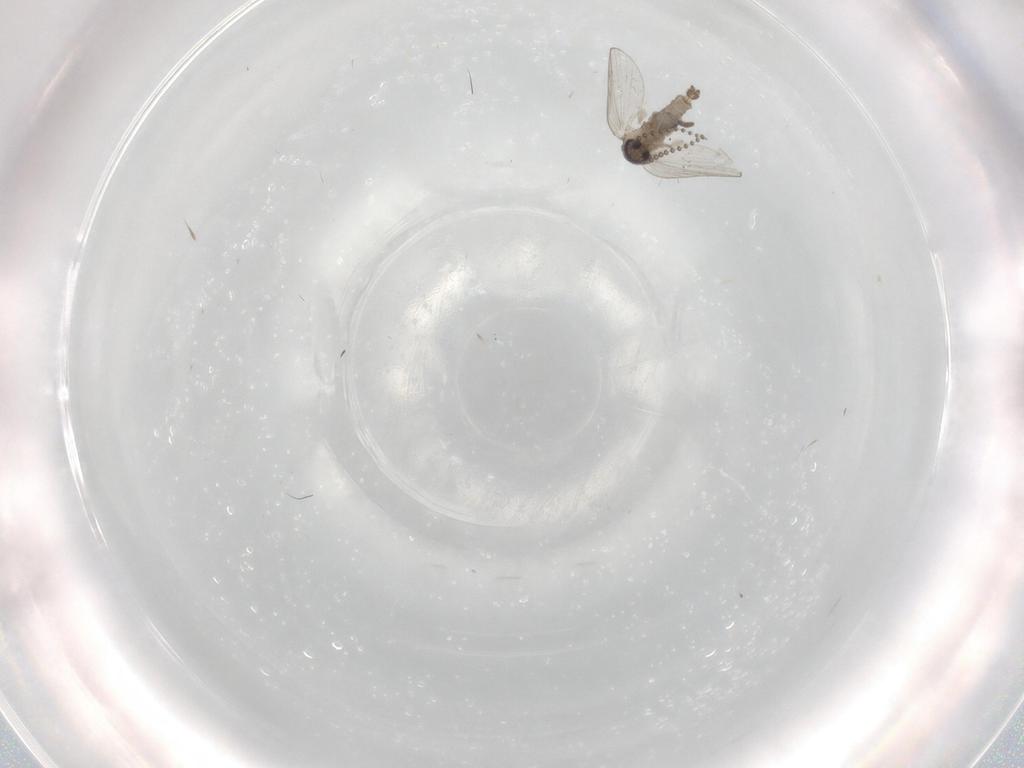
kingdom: Animalia
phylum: Arthropoda
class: Insecta
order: Diptera
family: Psychodidae
